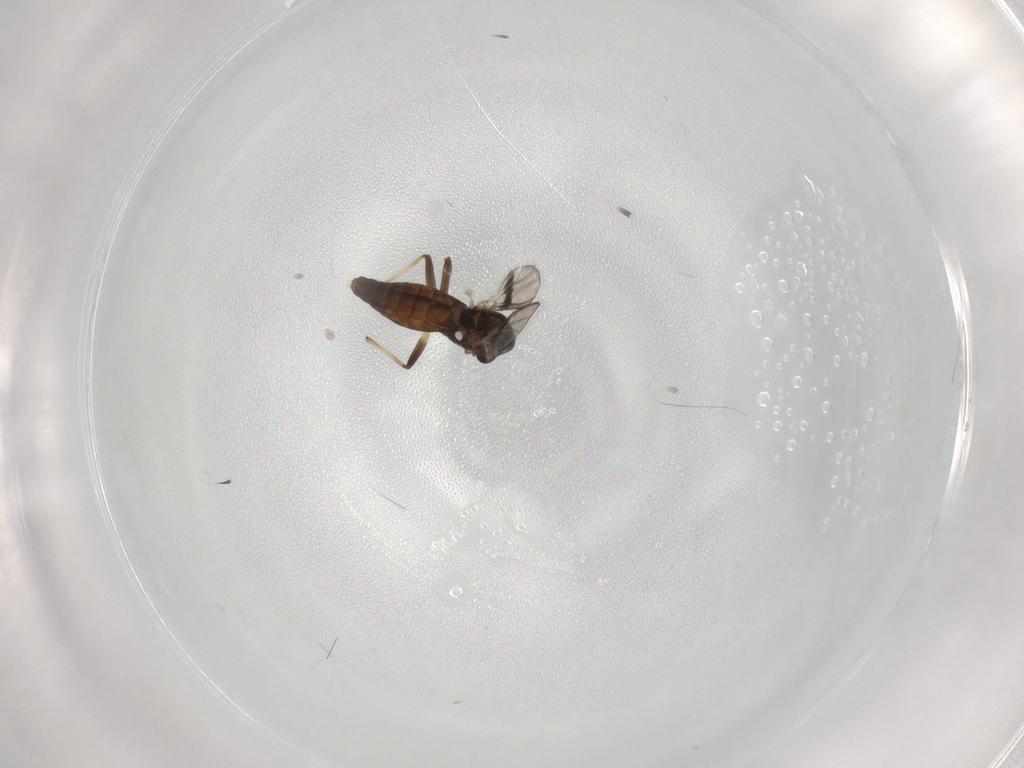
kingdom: Animalia
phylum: Arthropoda
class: Insecta
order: Diptera
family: Chironomidae
